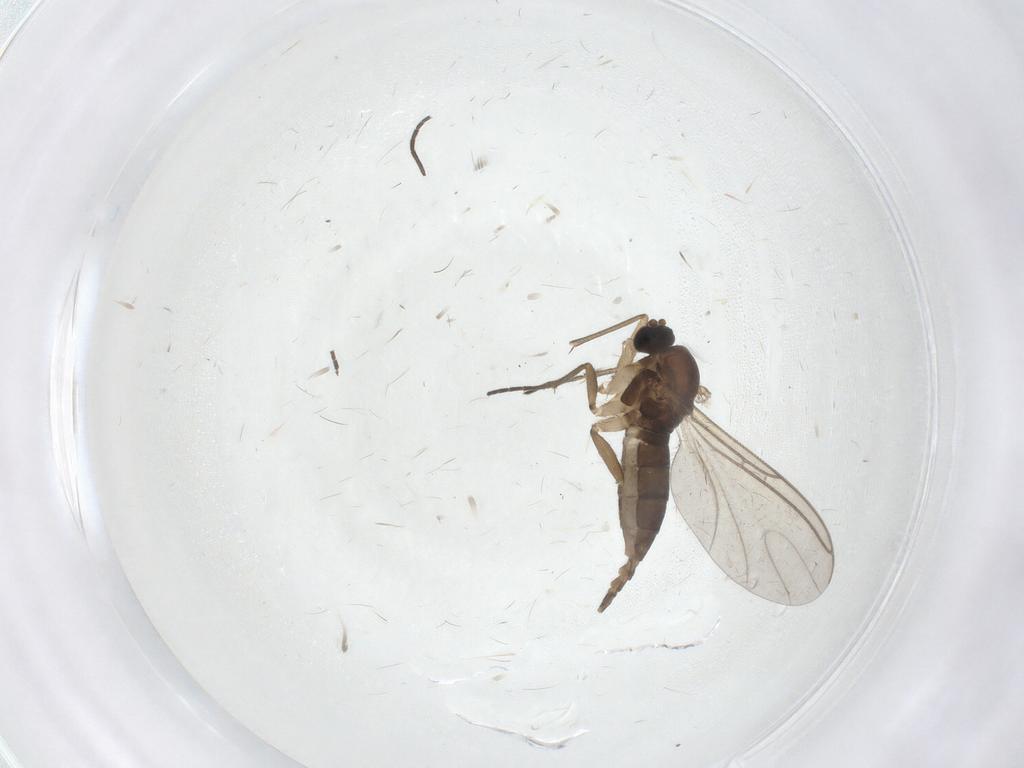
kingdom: Animalia
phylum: Arthropoda
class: Insecta
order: Diptera
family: Sciaridae
